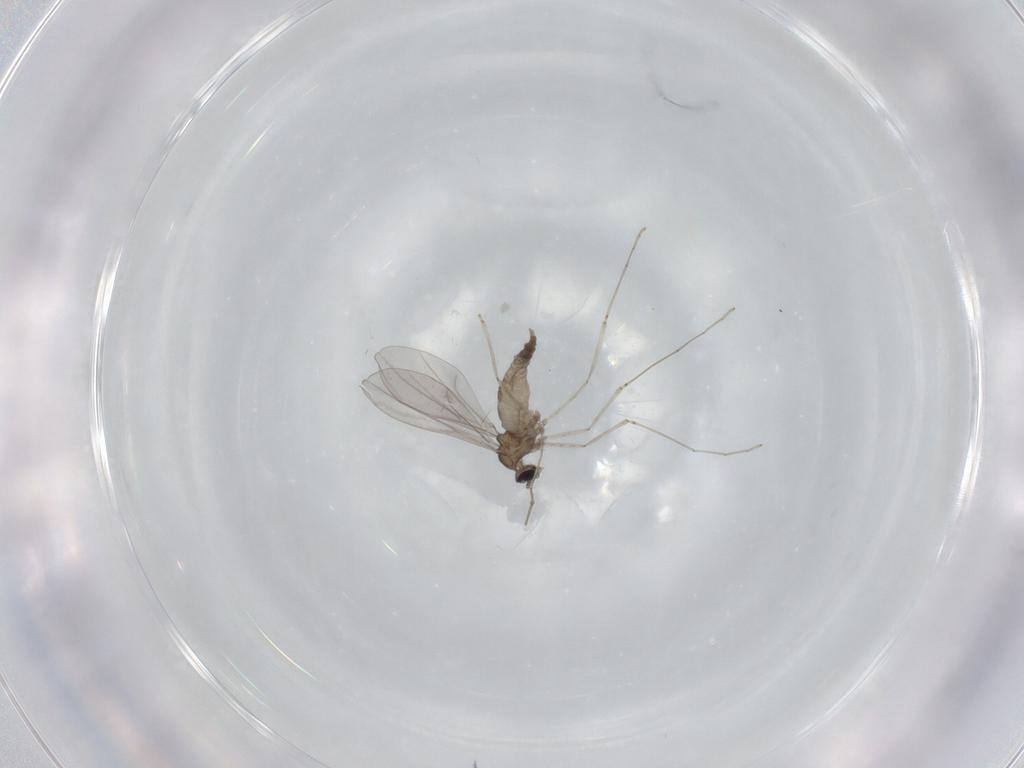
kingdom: Animalia
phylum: Arthropoda
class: Insecta
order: Diptera
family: Cecidomyiidae
